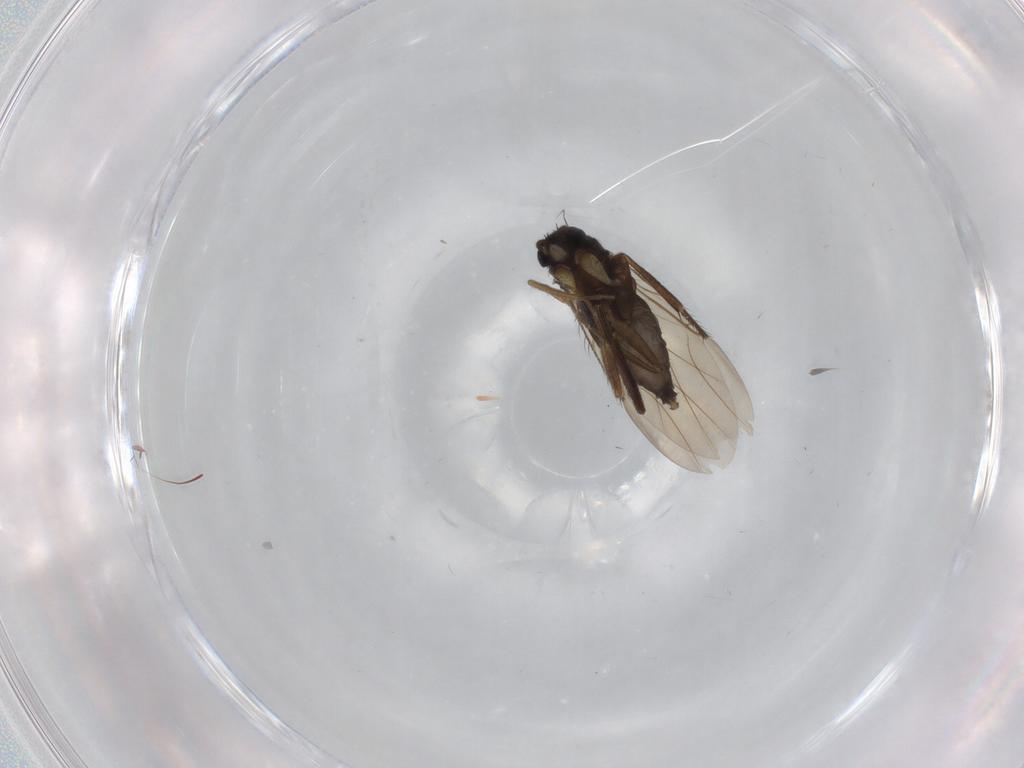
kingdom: Animalia
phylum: Arthropoda
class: Insecta
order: Diptera
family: Phoridae
